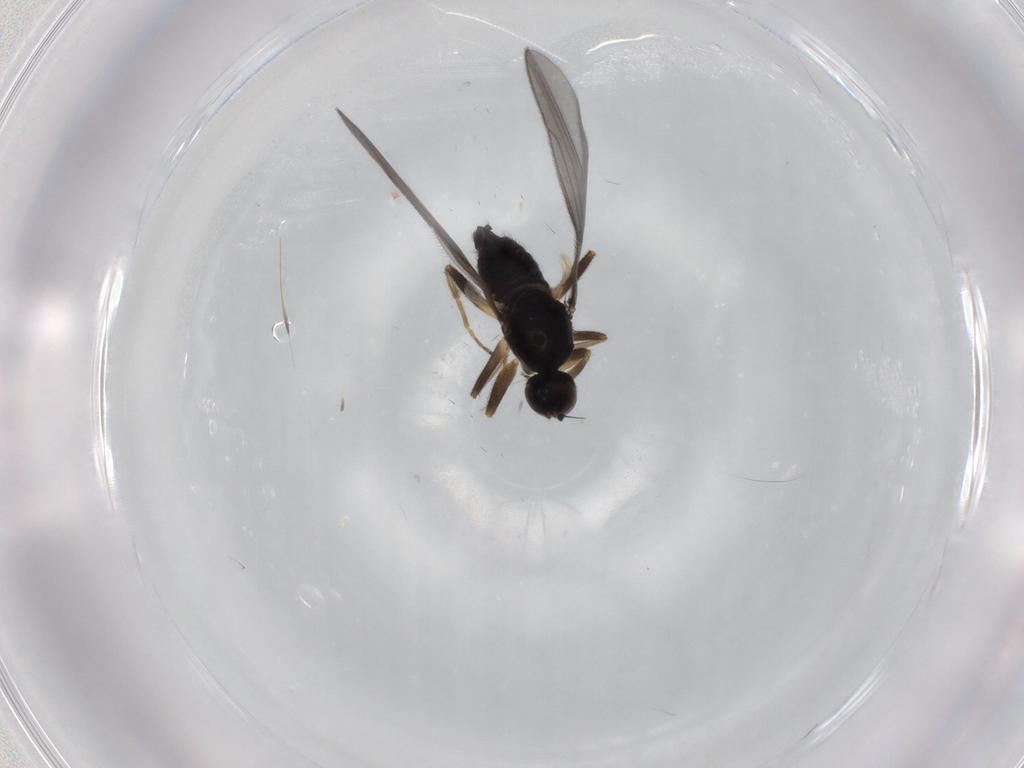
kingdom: Animalia
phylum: Arthropoda
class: Insecta
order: Diptera
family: Hybotidae
